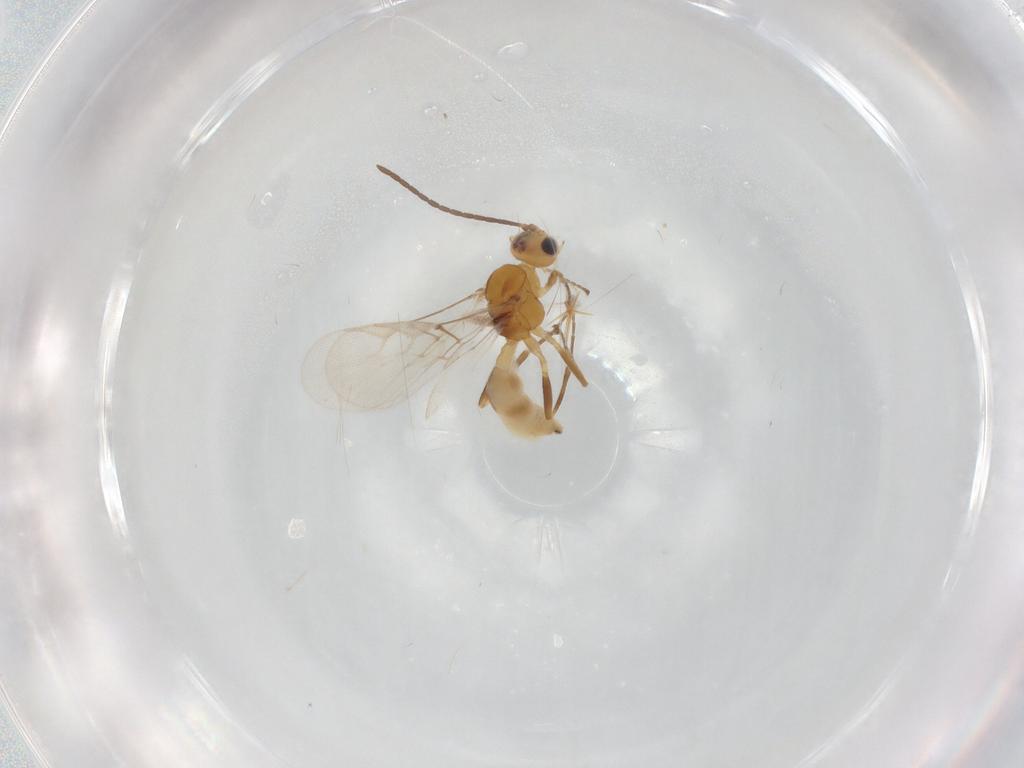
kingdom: Animalia
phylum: Arthropoda
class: Insecta
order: Hymenoptera
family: Braconidae
